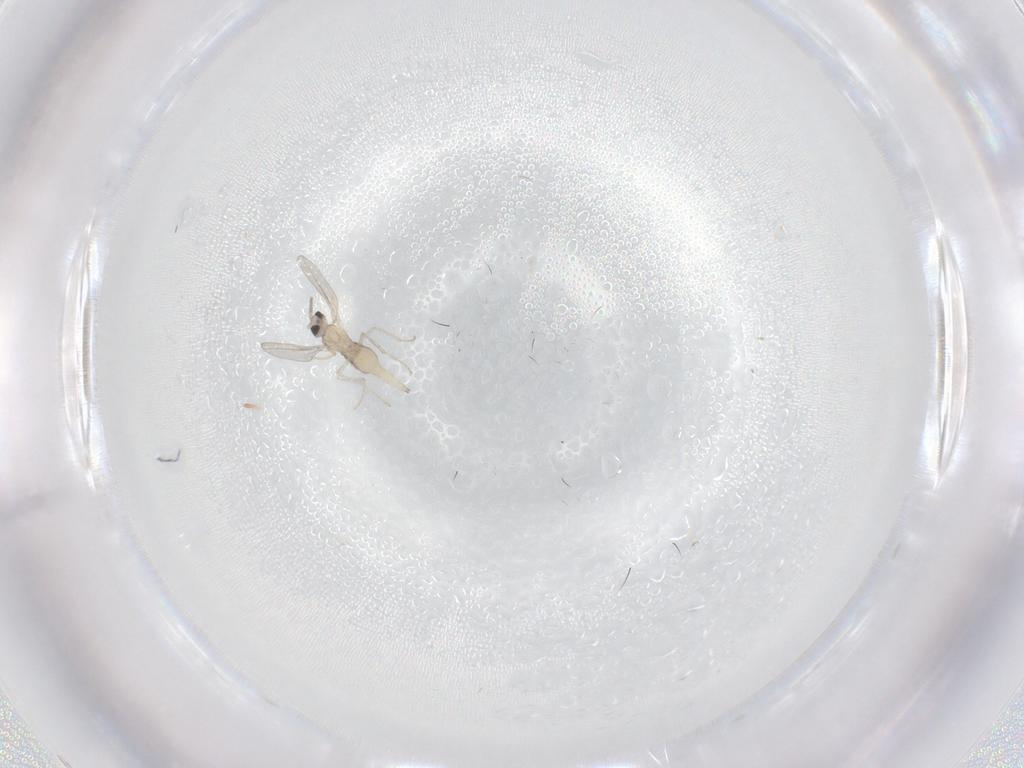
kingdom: Animalia
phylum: Arthropoda
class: Insecta
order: Diptera
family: Cecidomyiidae
